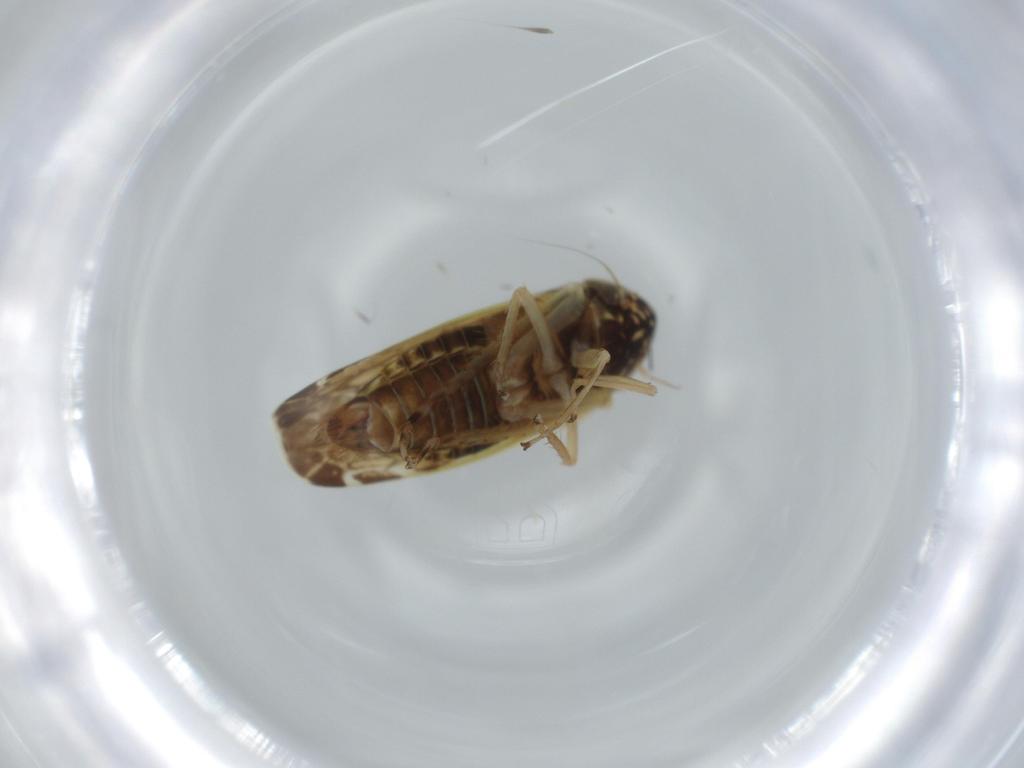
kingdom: Animalia
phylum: Arthropoda
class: Insecta
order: Hemiptera
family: Cicadellidae
